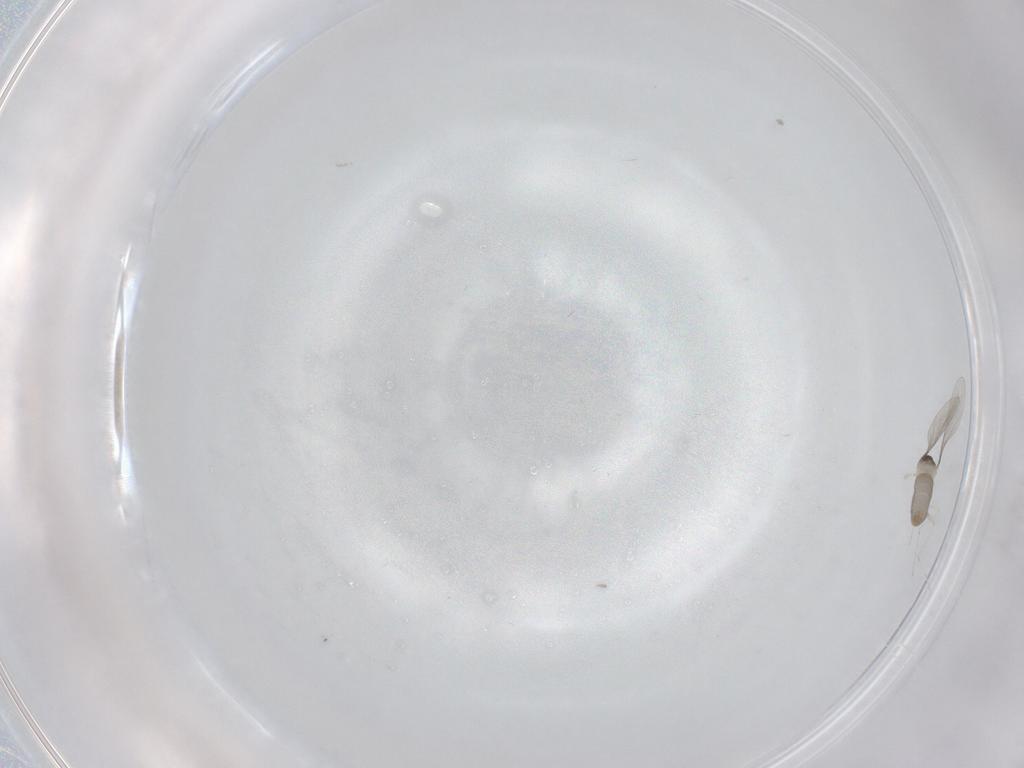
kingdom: Animalia
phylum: Arthropoda
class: Insecta
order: Diptera
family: Cecidomyiidae
